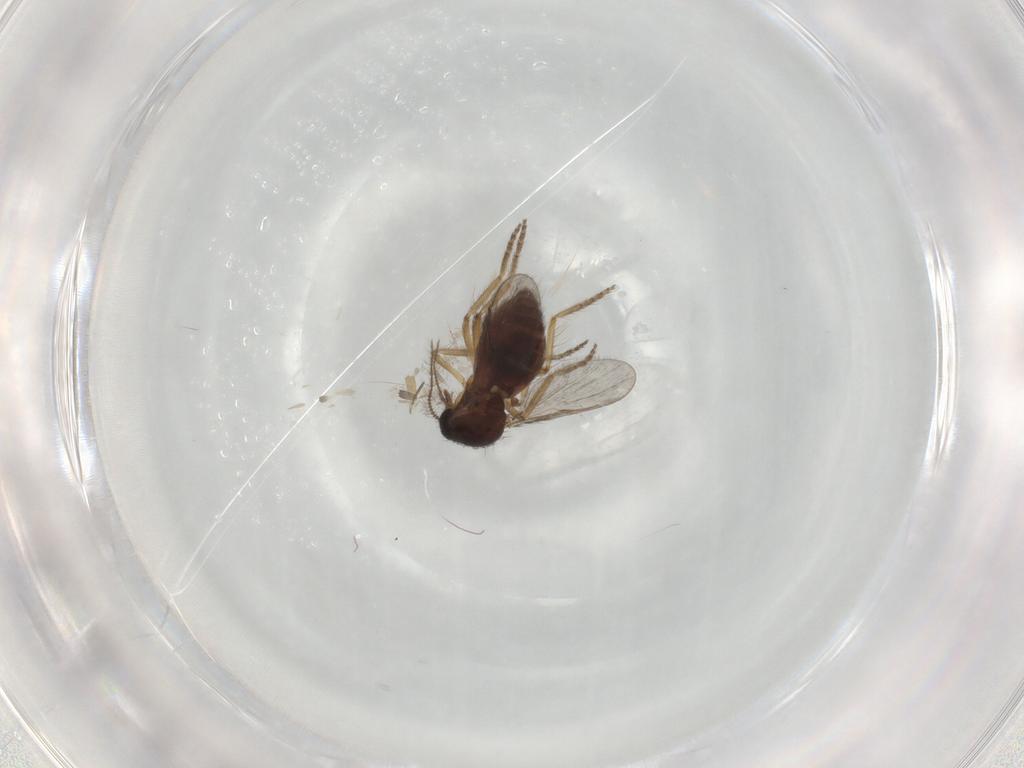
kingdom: Animalia
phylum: Arthropoda
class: Insecta
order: Diptera
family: Ceratopogonidae
